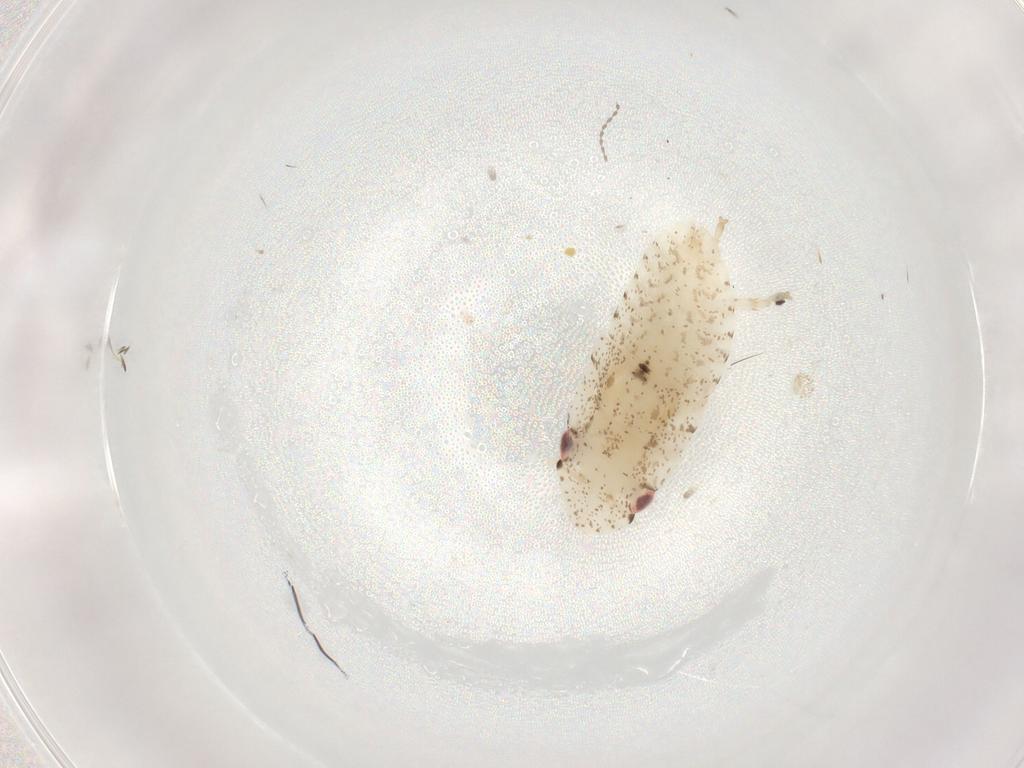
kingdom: Animalia
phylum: Arthropoda
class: Insecta
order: Hemiptera
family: Cicadellidae
